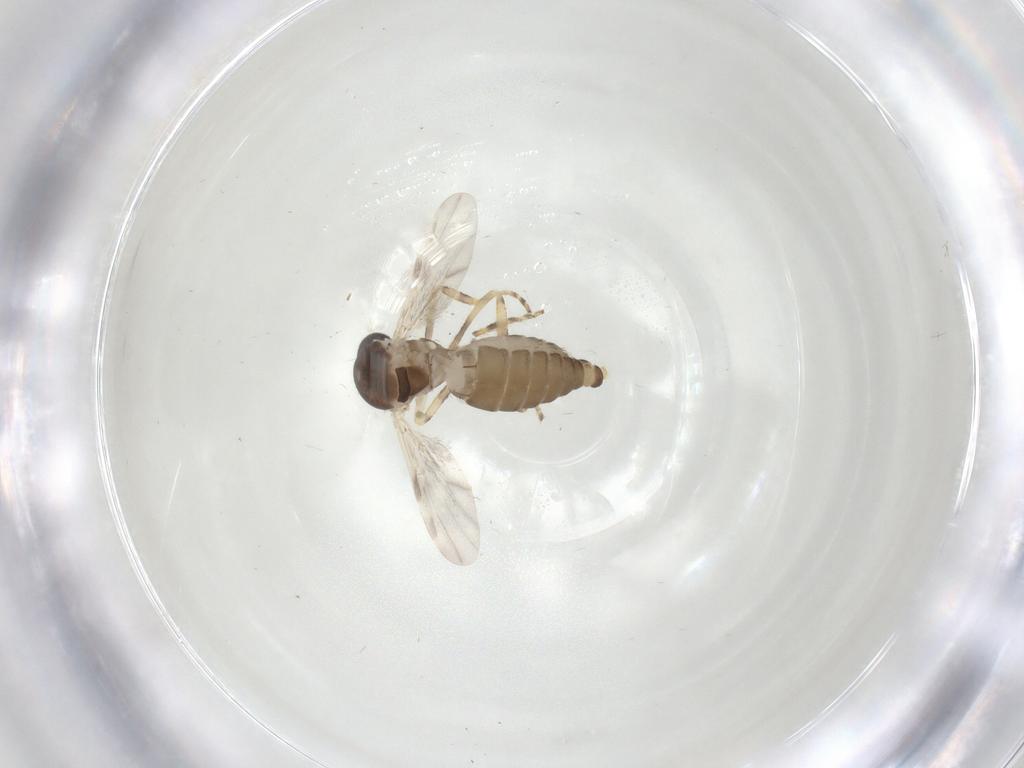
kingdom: Animalia
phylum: Arthropoda
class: Insecta
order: Diptera
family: Ceratopogonidae
